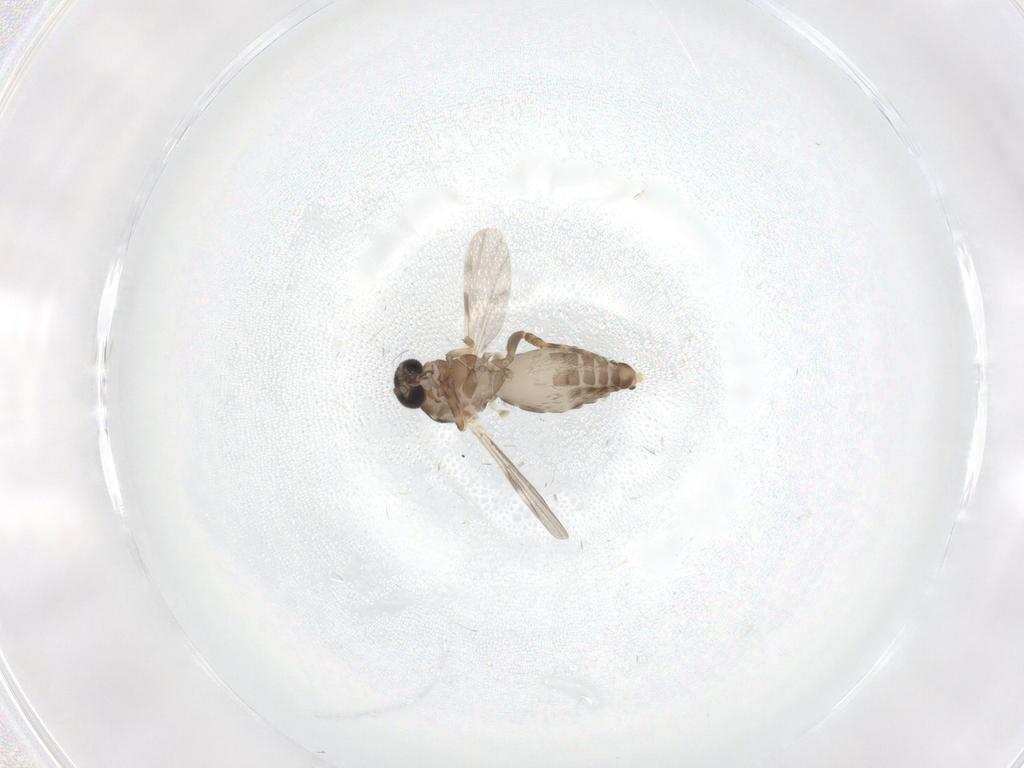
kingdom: Animalia
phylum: Arthropoda
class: Insecta
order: Diptera
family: Ceratopogonidae
